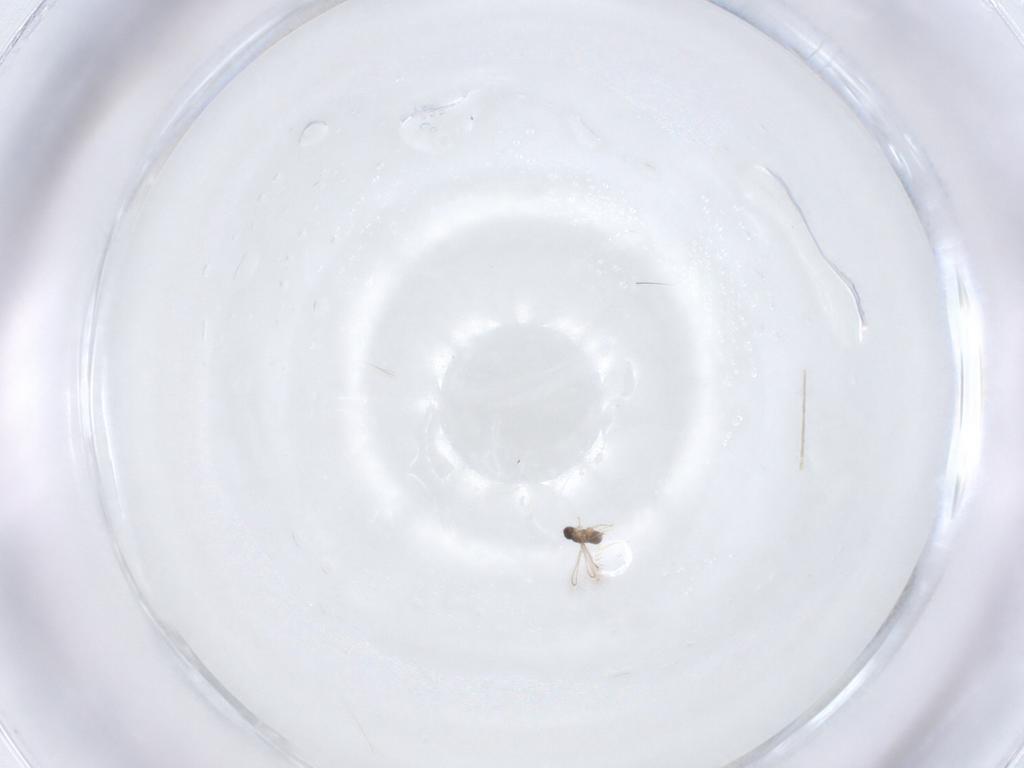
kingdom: Animalia
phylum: Arthropoda
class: Insecta
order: Hymenoptera
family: Mymaridae
